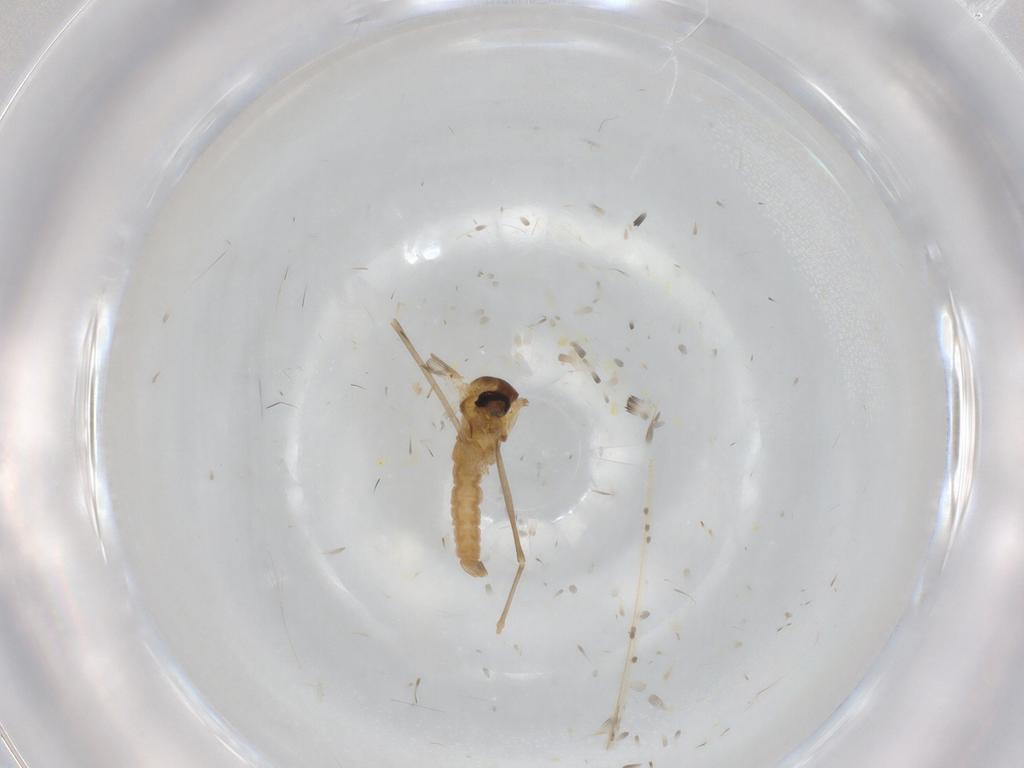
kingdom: Animalia
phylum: Arthropoda
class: Insecta
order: Diptera
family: Cecidomyiidae
